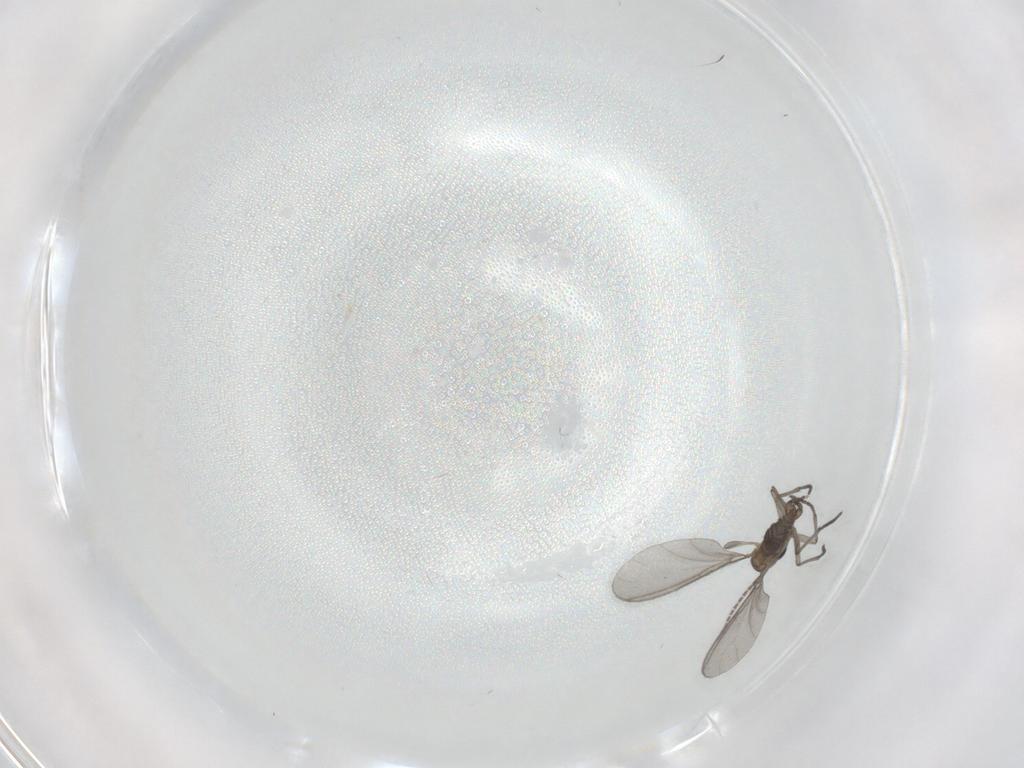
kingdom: Animalia
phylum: Arthropoda
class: Insecta
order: Diptera
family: Sciaridae
